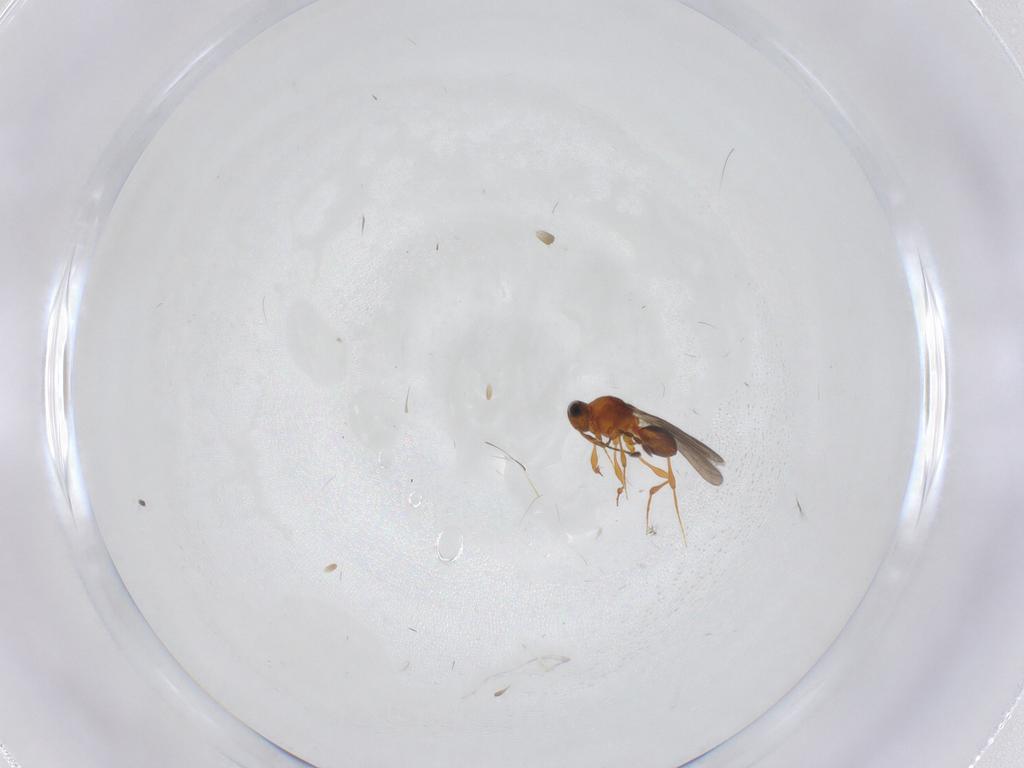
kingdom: Animalia
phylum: Arthropoda
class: Insecta
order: Hymenoptera
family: Platygastridae
